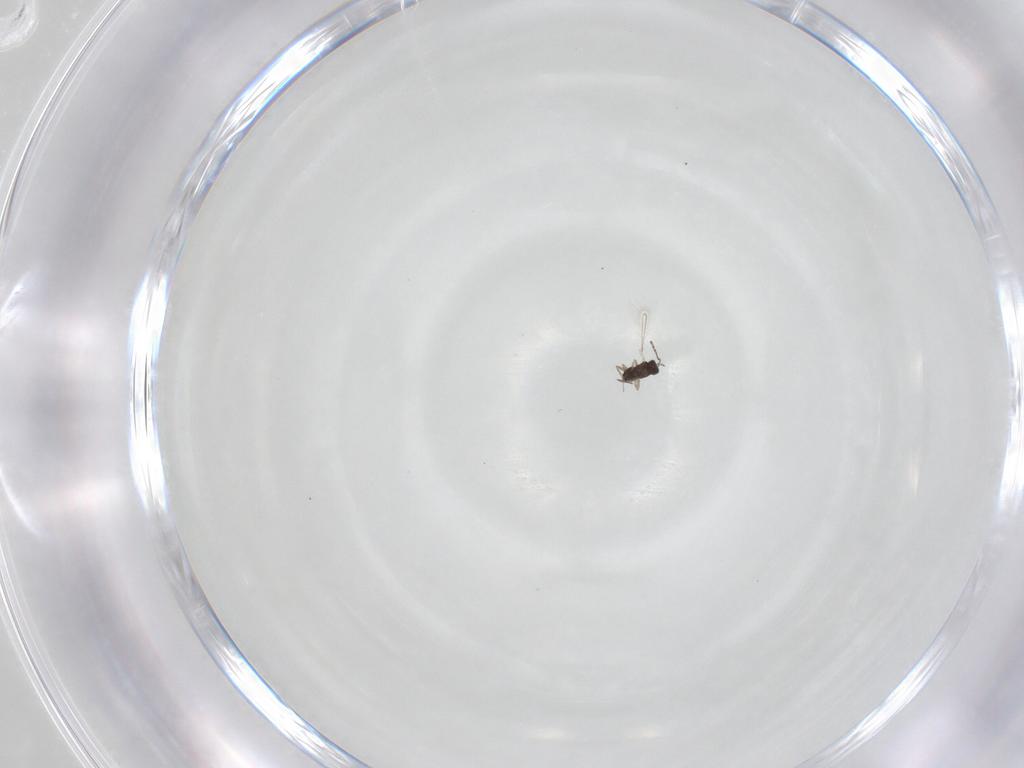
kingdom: Animalia
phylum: Arthropoda
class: Insecta
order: Hymenoptera
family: Mymaridae
